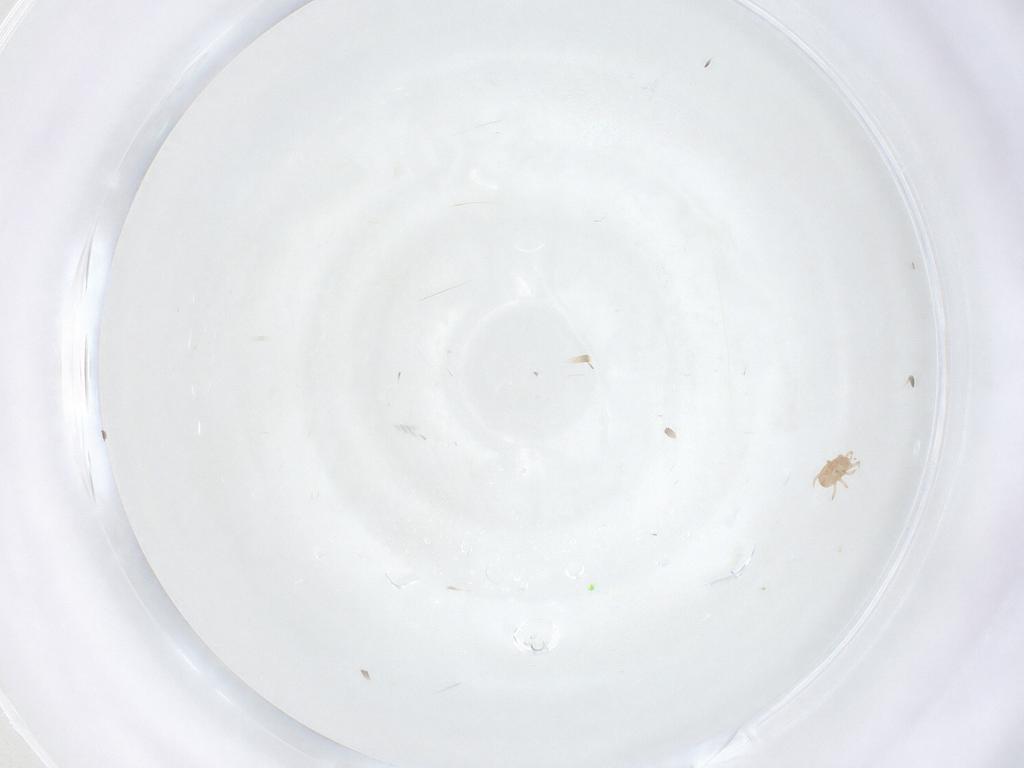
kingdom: Animalia
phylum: Arthropoda
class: Arachnida
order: Mesostigmata
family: Ascidae
